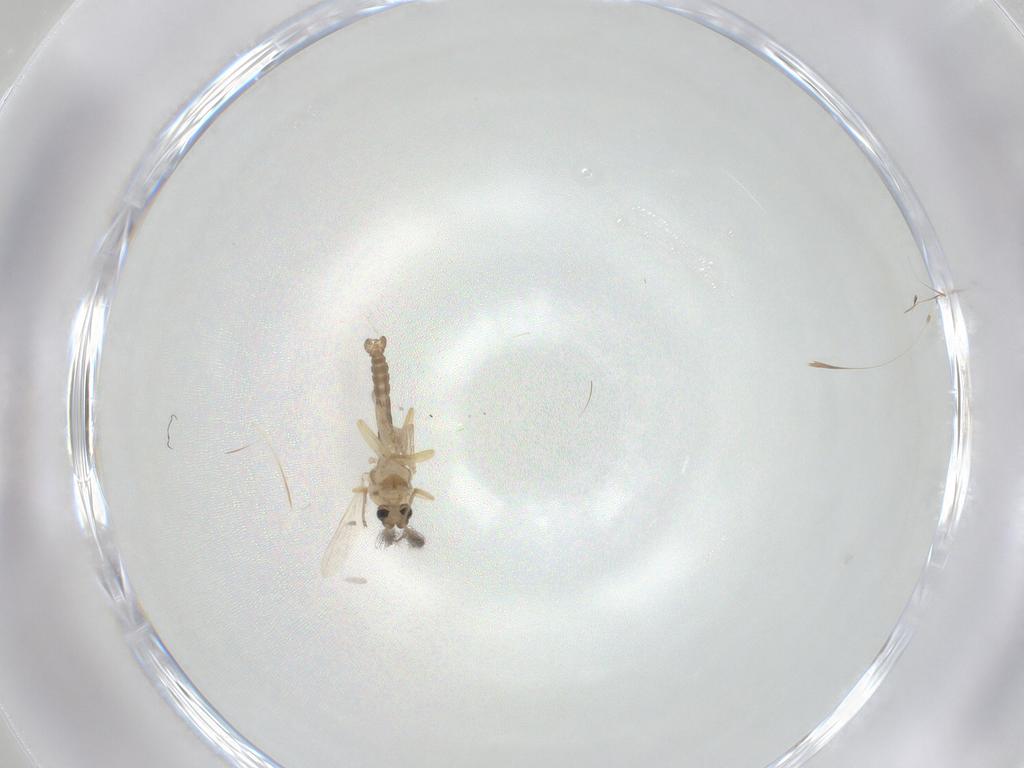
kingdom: Animalia
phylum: Arthropoda
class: Insecta
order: Diptera
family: Ceratopogonidae
